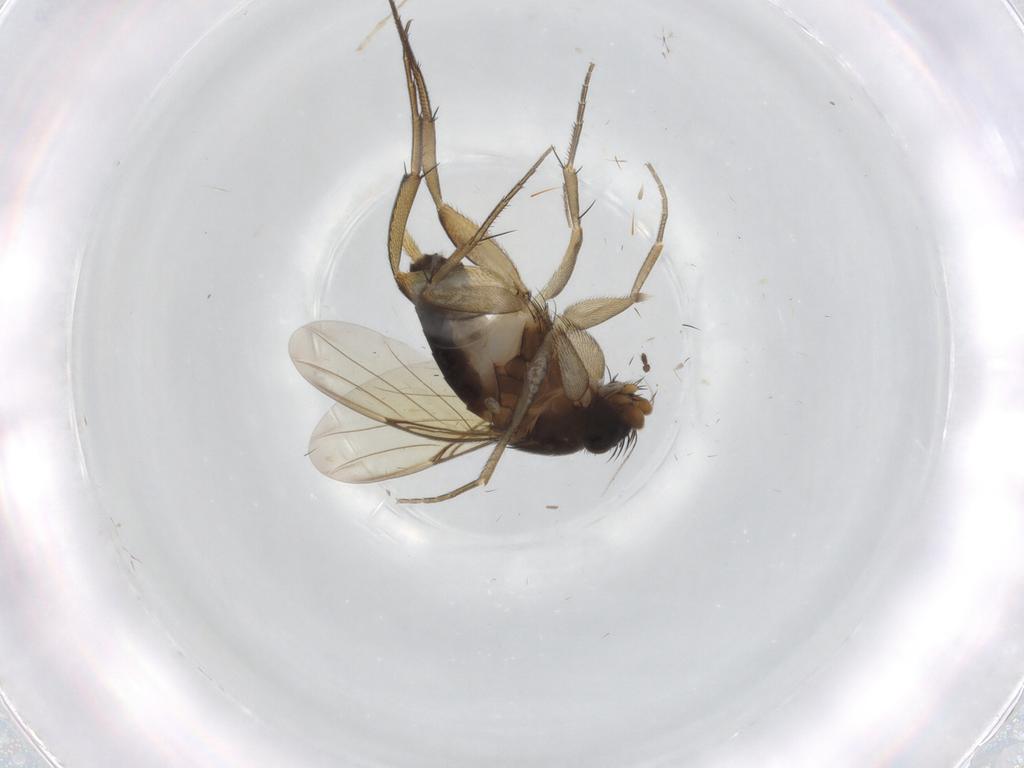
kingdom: Animalia
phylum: Arthropoda
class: Insecta
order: Diptera
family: Phoridae
